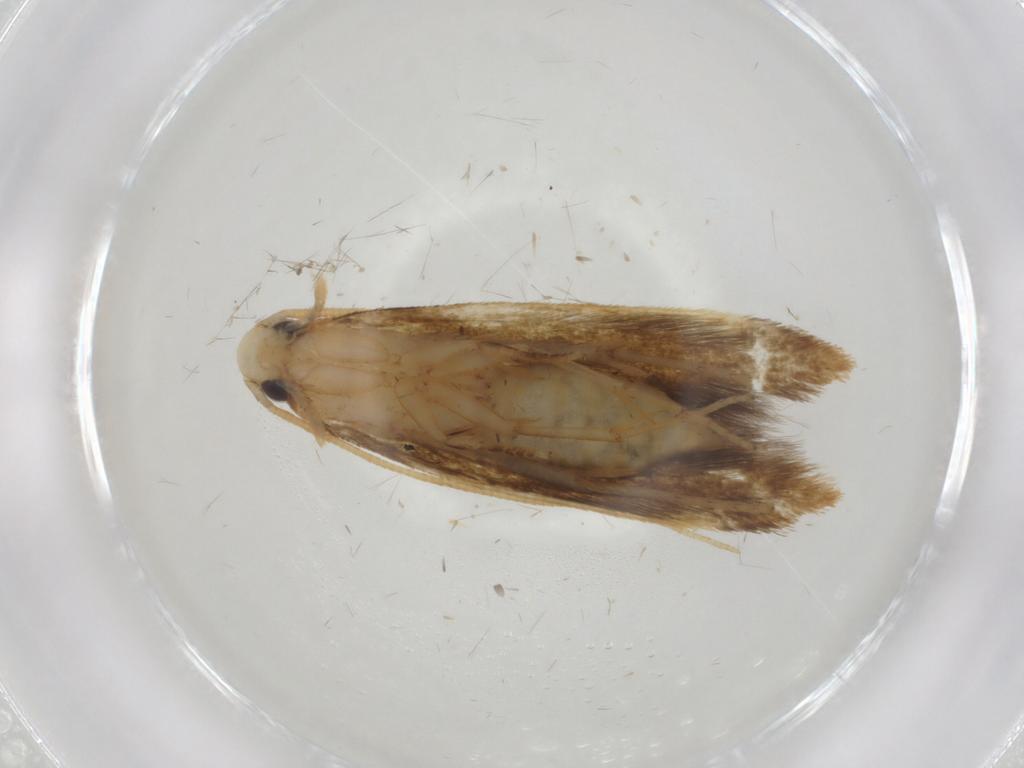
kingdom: Animalia
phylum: Arthropoda
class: Insecta
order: Lepidoptera
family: Tineidae
